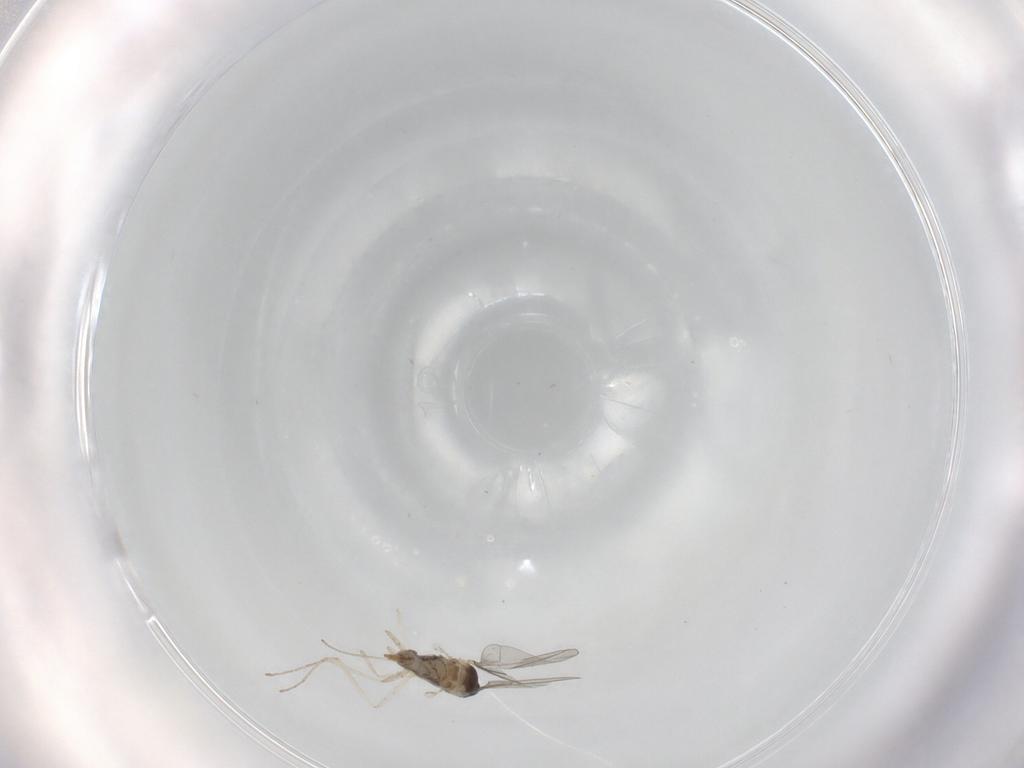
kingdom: Animalia
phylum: Arthropoda
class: Insecta
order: Diptera
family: Cecidomyiidae
